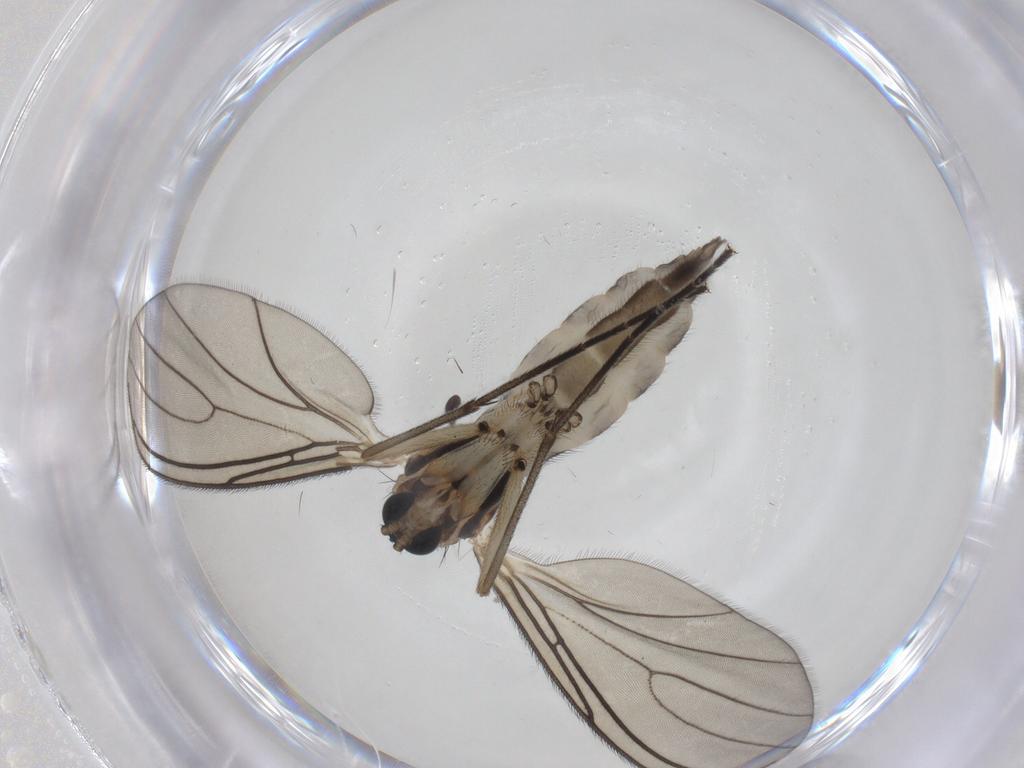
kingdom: Animalia
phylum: Arthropoda
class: Insecta
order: Diptera
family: Sciaridae
